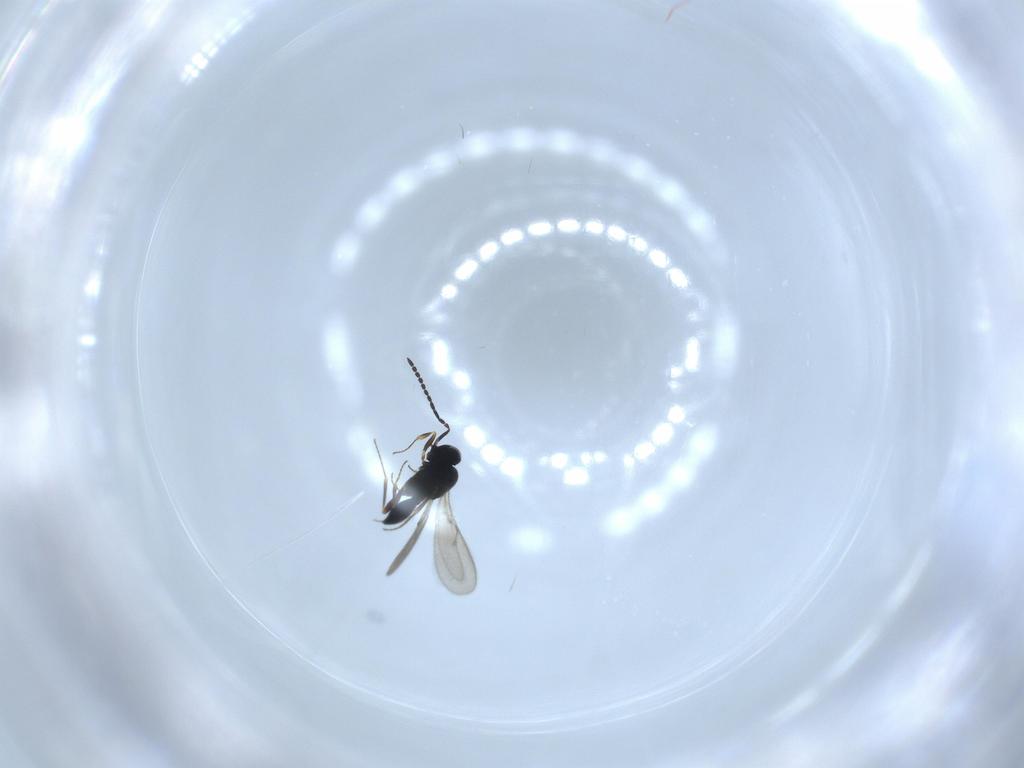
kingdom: Animalia
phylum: Arthropoda
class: Insecta
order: Hymenoptera
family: Scelionidae
